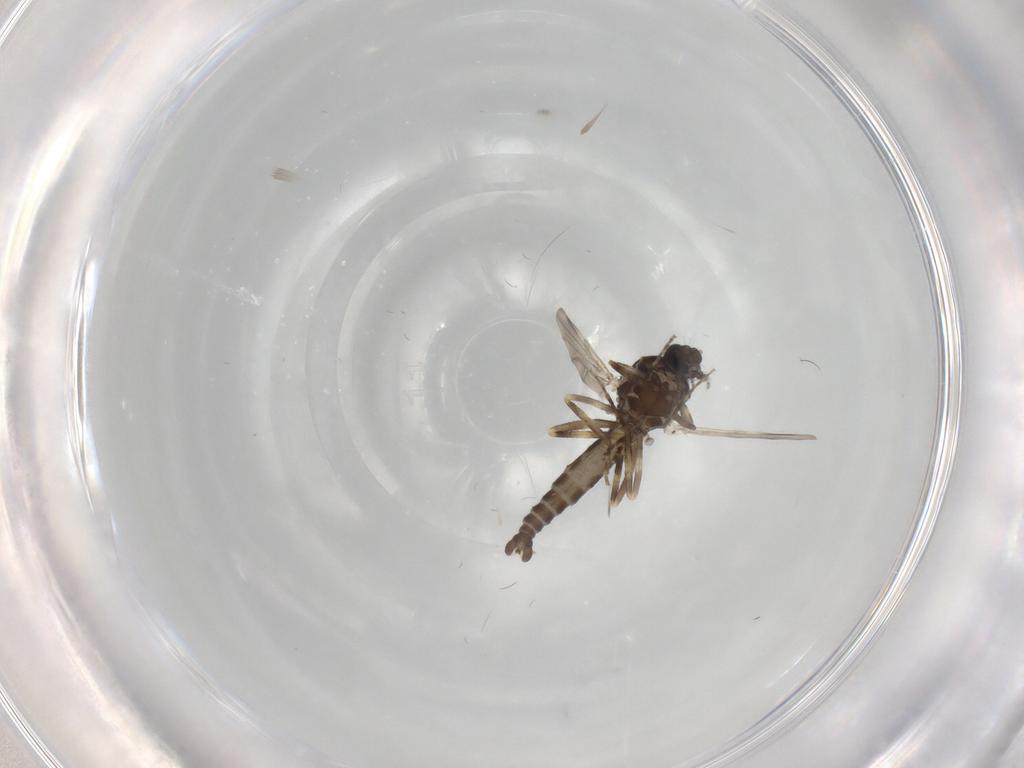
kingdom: Animalia
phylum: Arthropoda
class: Insecta
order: Diptera
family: Ceratopogonidae
